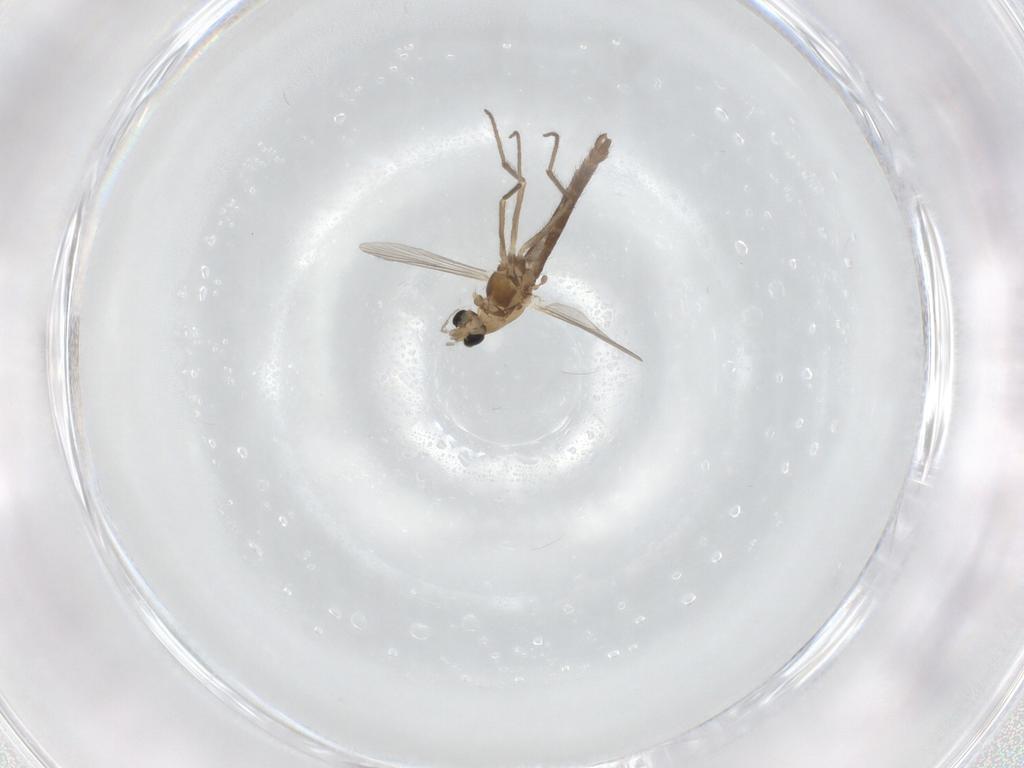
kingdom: Animalia
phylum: Arthropoda
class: Insecta
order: Diptera
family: Chironomidae
